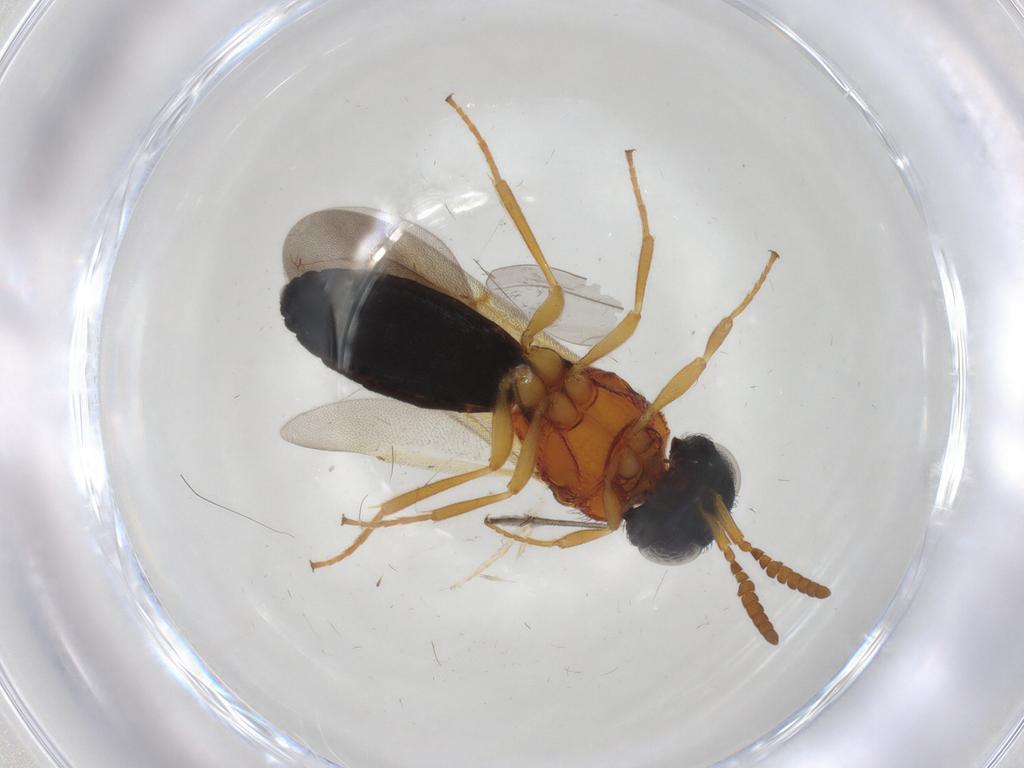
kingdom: Animalia
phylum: Arthropoda
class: Insecta
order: Hymenoptera
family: Scelionidae
